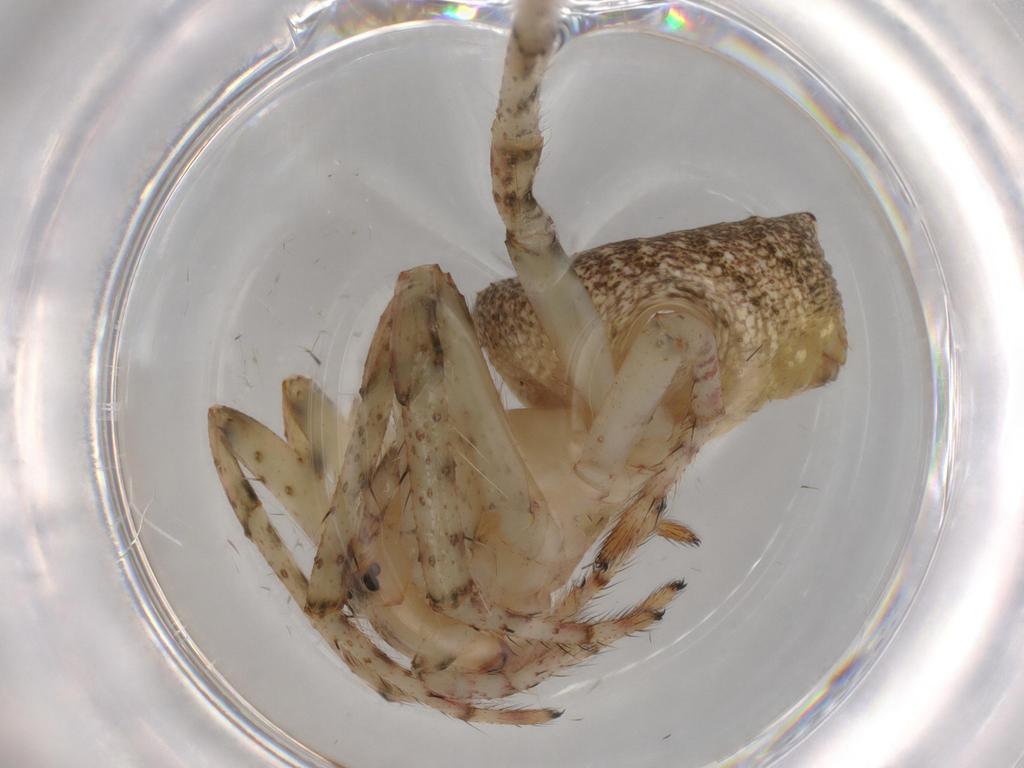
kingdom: Animalia
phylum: Arthropoda
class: Arachnida
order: Araneae
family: Araneidae
